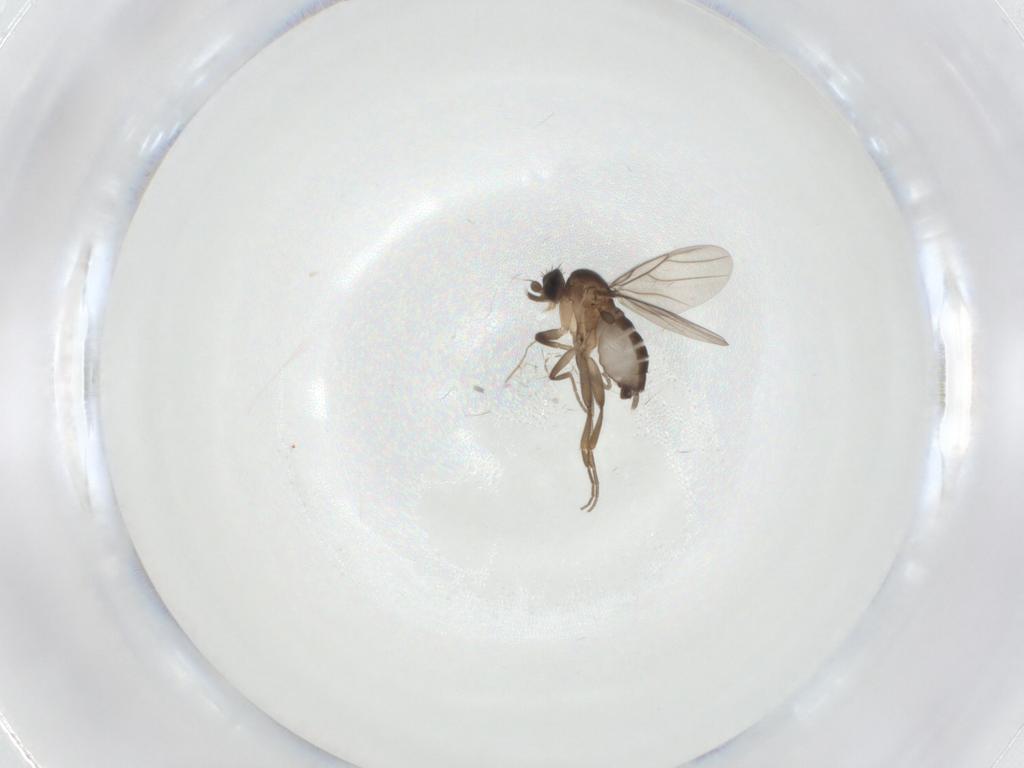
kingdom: Animalia
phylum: Arthropoda
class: Insecta
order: Diptera
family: Phoridae
